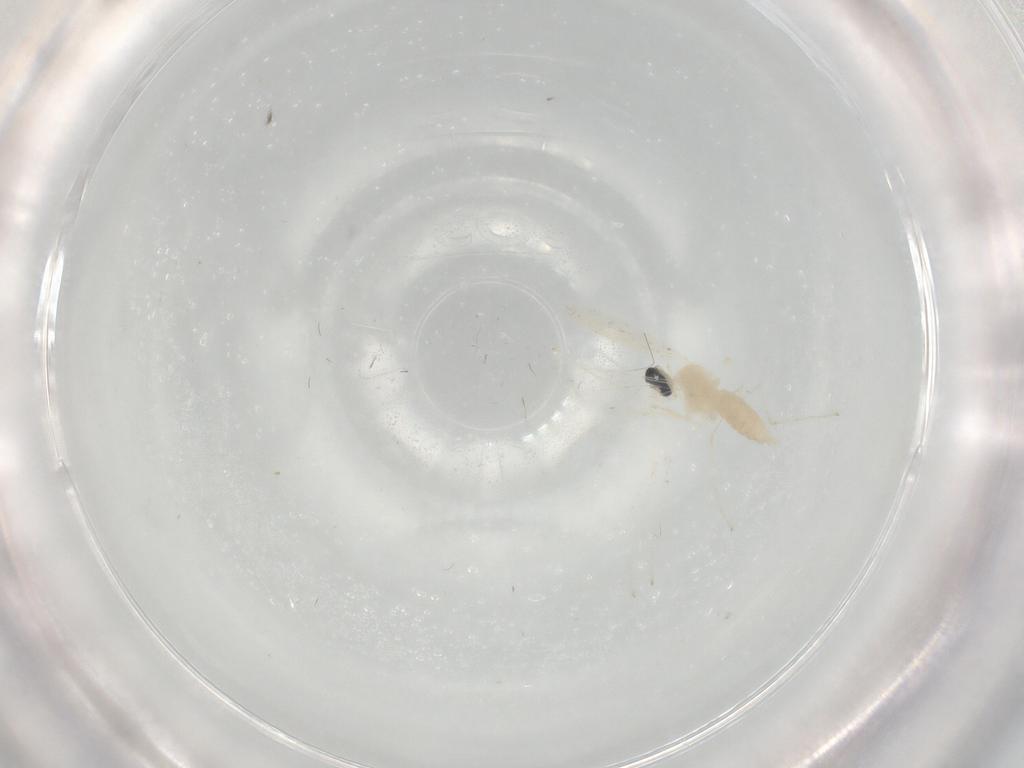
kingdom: Animalia
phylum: Arthropoda
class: Insecta
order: Diptera
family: Cecidomyiidae
